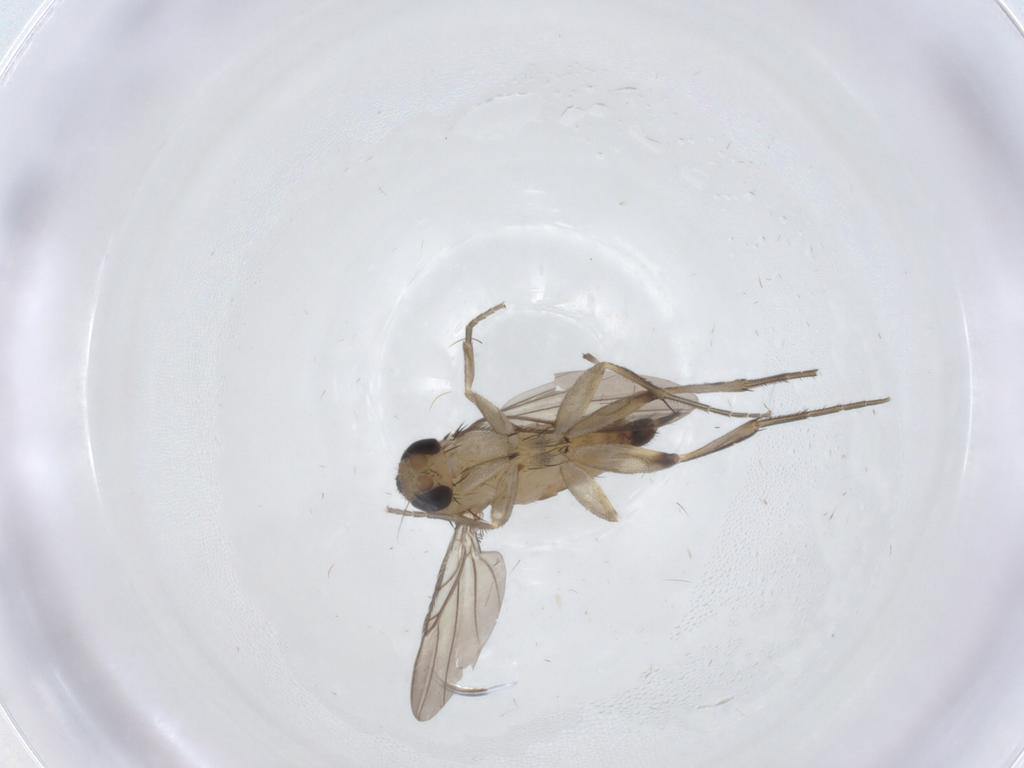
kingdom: Animalia
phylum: Arthropoda
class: Insecta
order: Diptera
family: Phoridae
